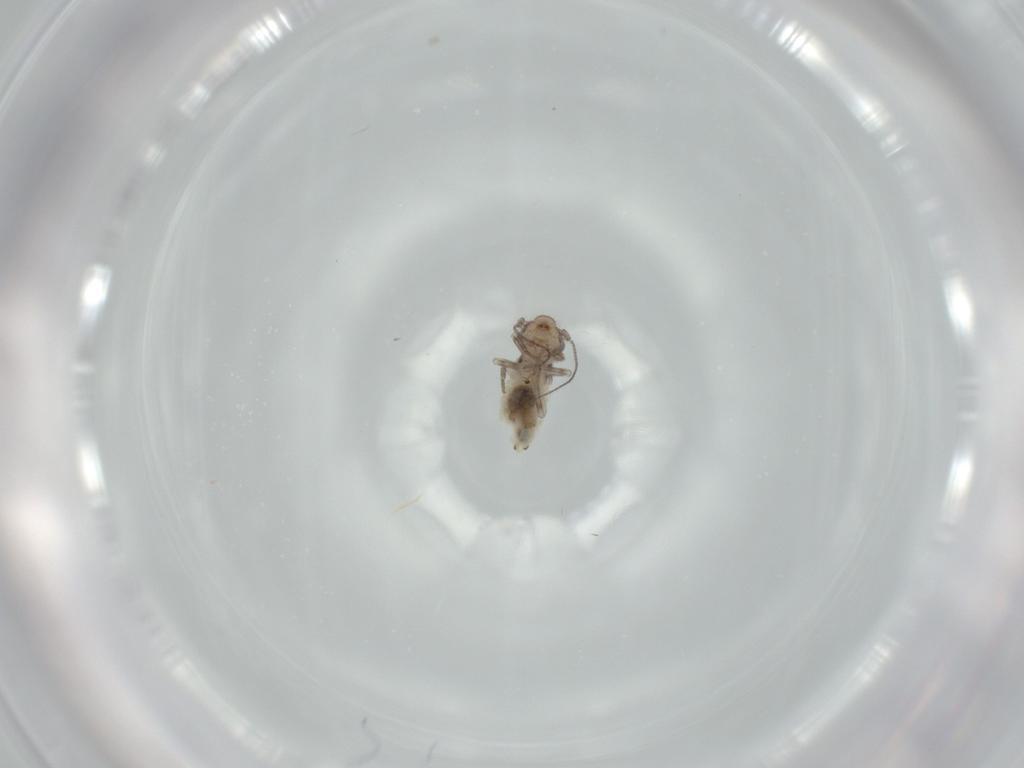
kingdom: Animalia
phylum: Arthropoda
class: Insecta
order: Psocodea
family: Lepidopsocidae
